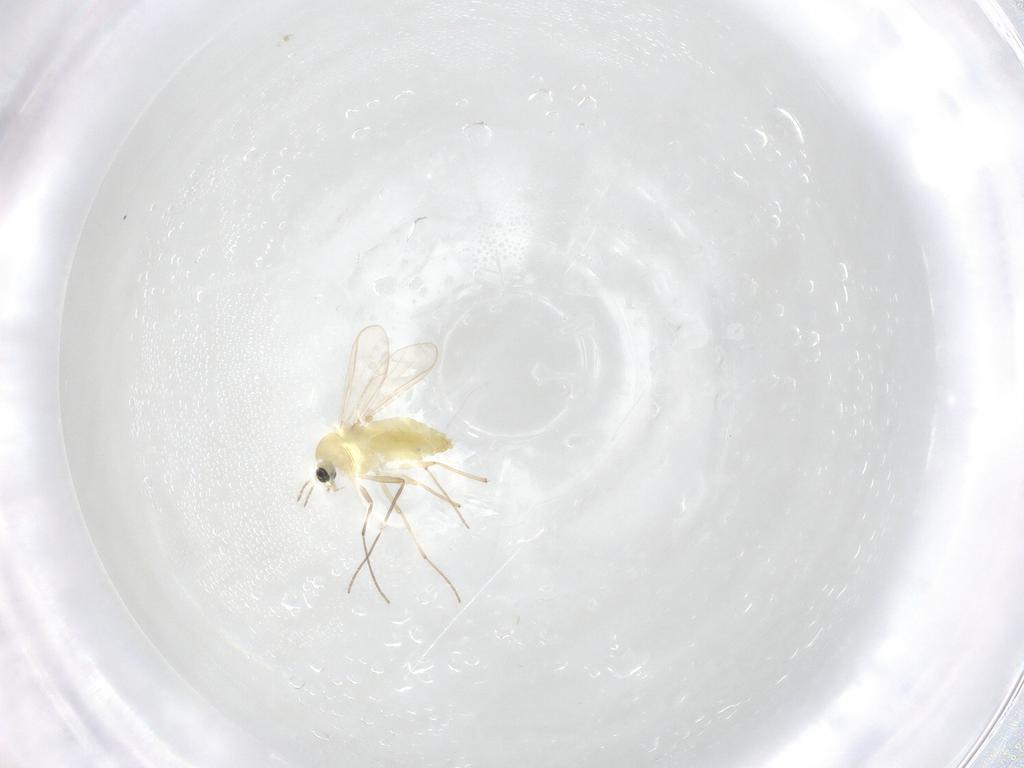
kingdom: Animalia
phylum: Arthropoda
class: Insecta
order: Diptera
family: Chironomidae
